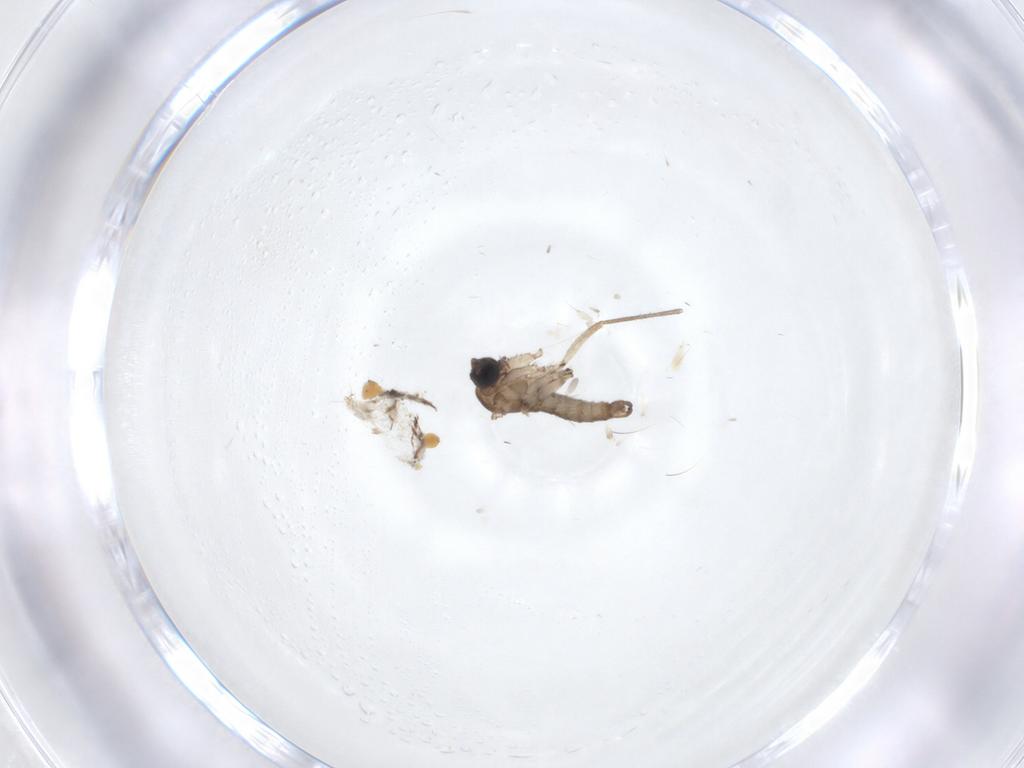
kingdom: Animalia
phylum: Arthropoda
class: Insecta
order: Diptera
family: Sciaridae
